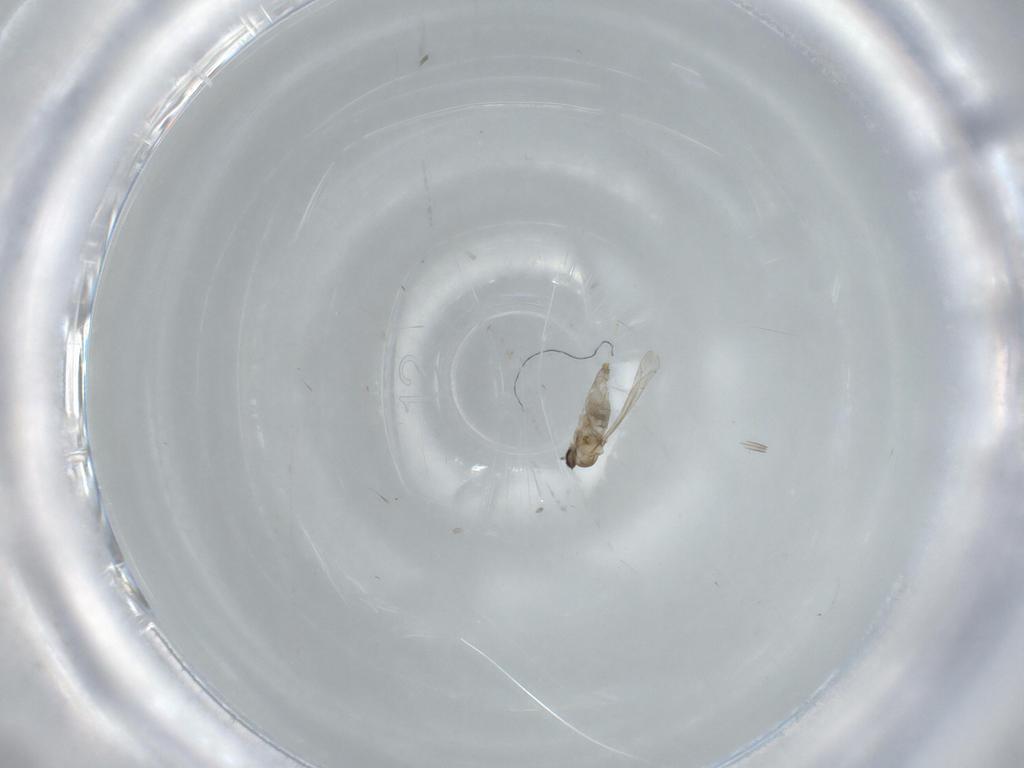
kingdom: Animalia
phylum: Arthropoda
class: Insecta
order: Diptera
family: Cecidomyiidae
